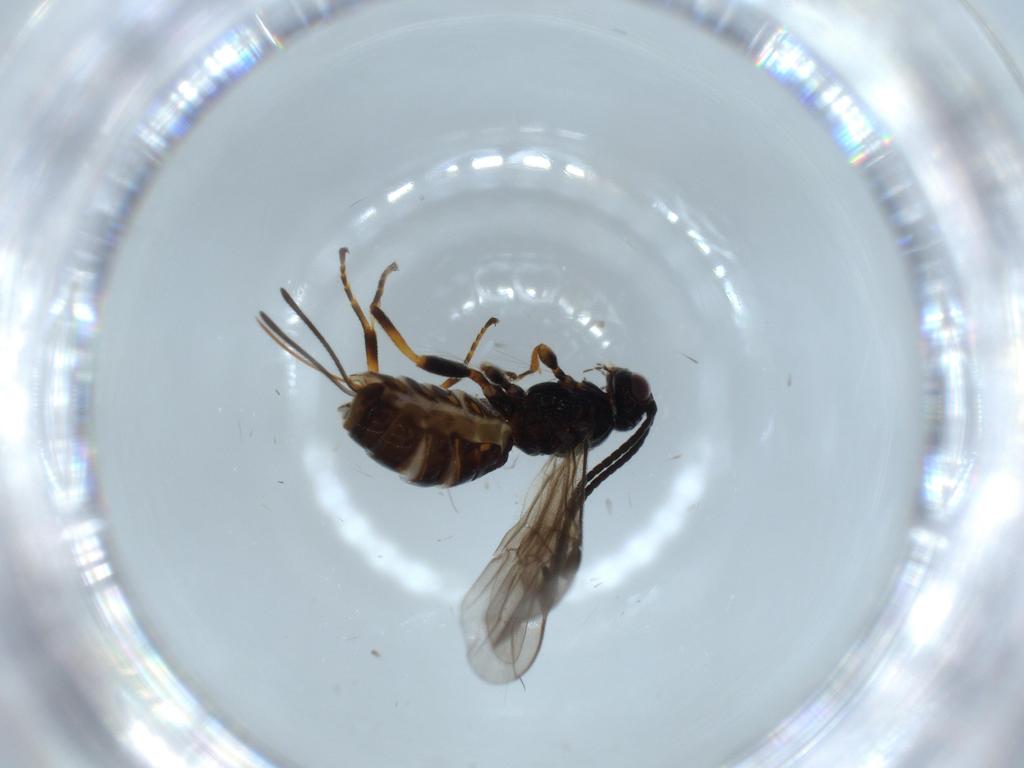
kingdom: Animalia
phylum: Arthropoda
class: Insecta
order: Hymenoptera
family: Braconidae
